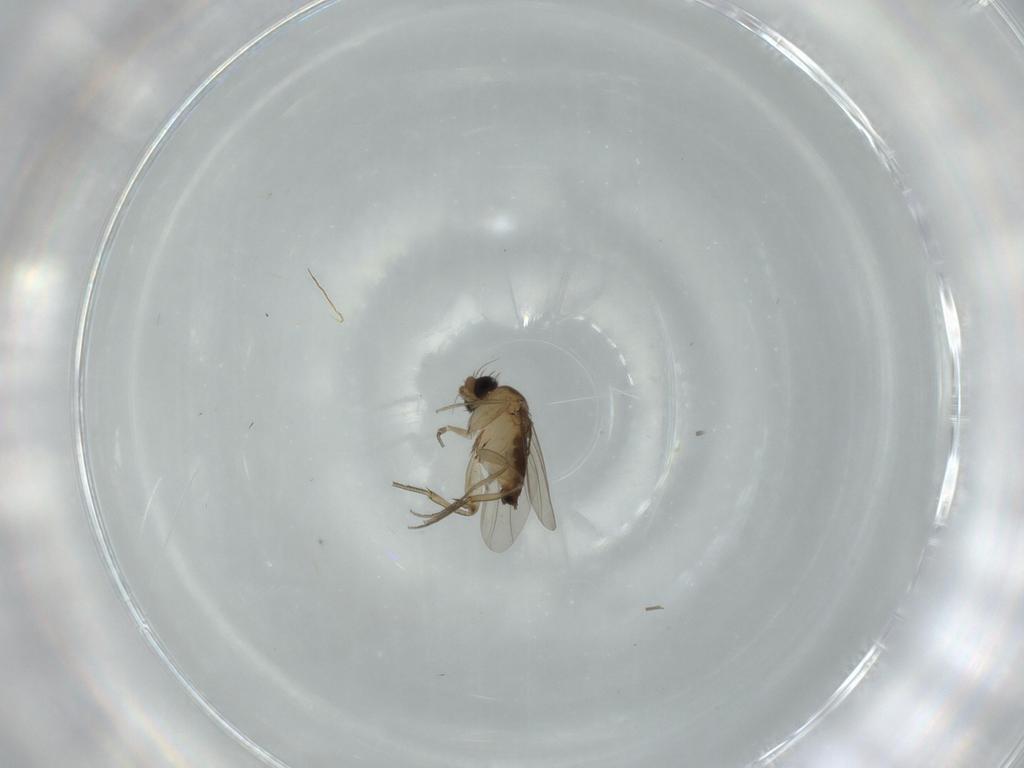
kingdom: Animalia
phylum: Arthropoda
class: Insecta
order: Diptera
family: Phoridae
